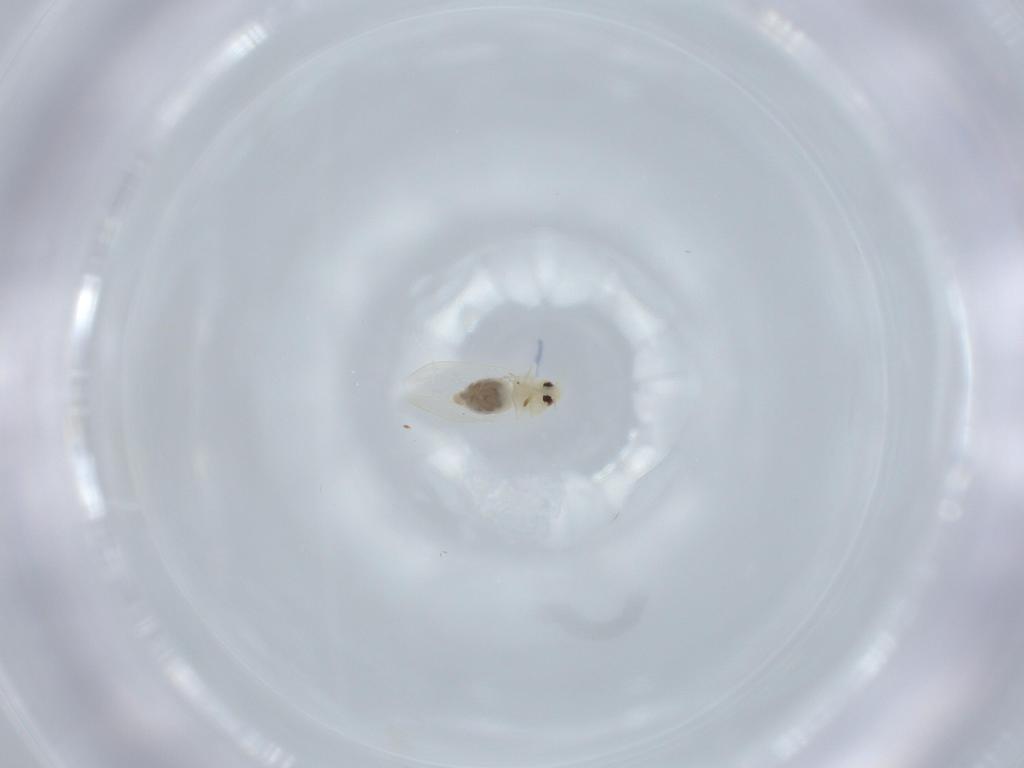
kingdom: Animalia
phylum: Arthropoda
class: Insecta
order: Hemiptera
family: Aleyrodidae
